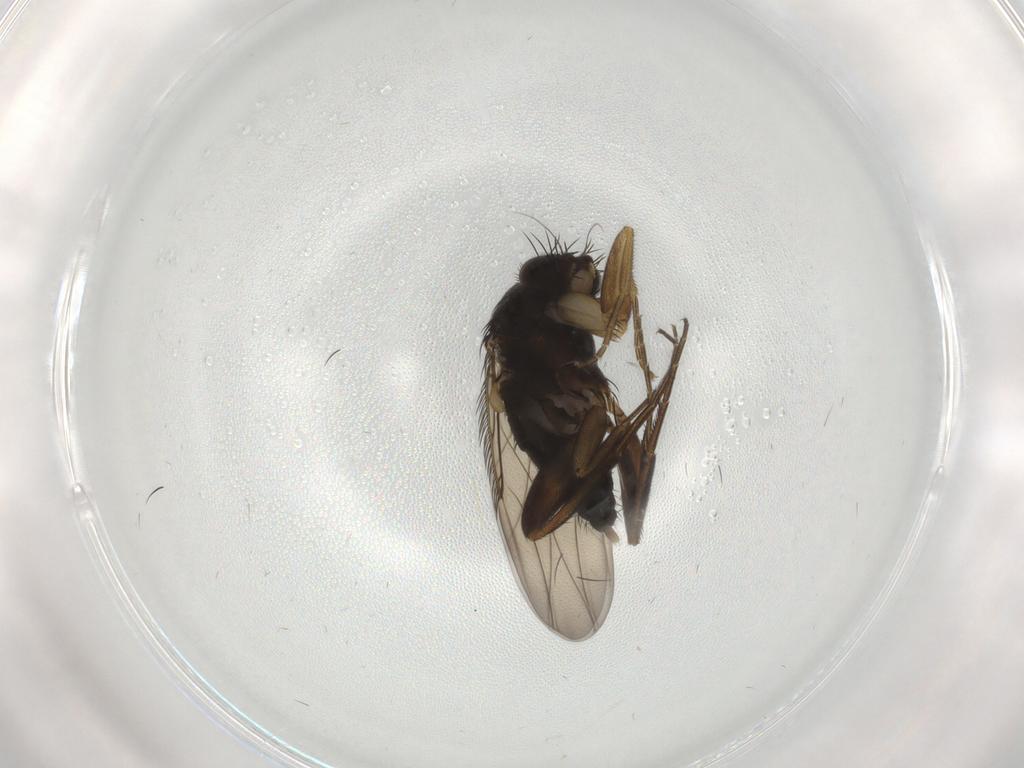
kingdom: Animalia
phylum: Arthropoda
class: Insecta
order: Diptera
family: Phoridae
